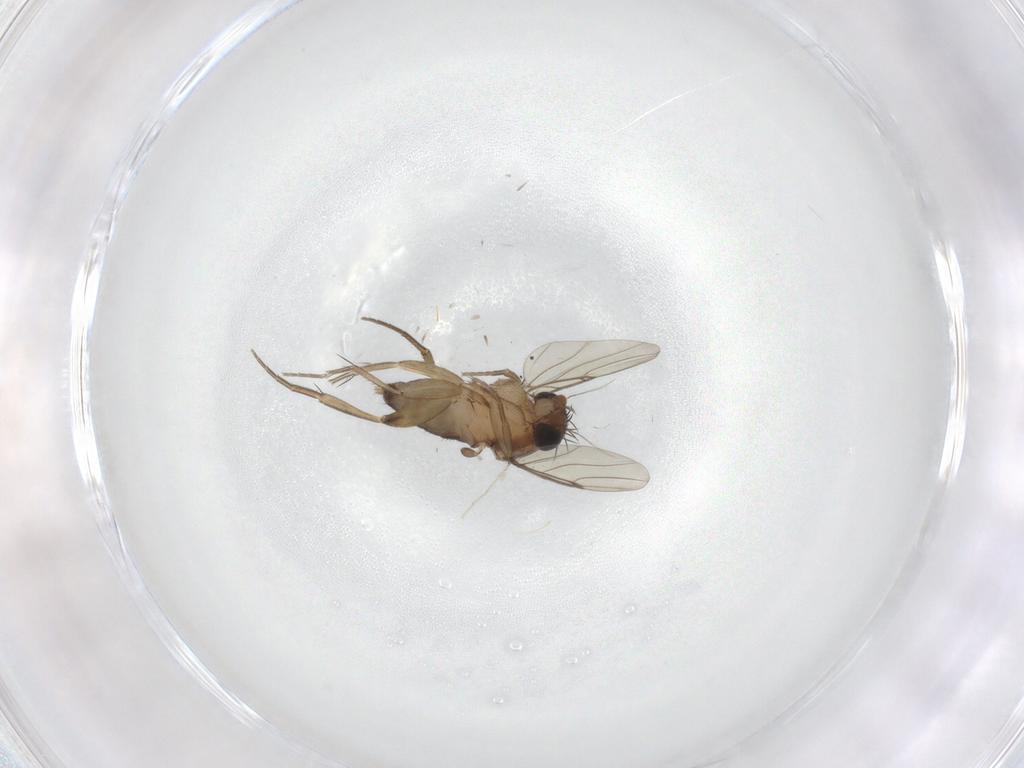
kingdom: Animalia
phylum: Arthropoda
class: Insecta
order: Diptera
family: Phoridae
